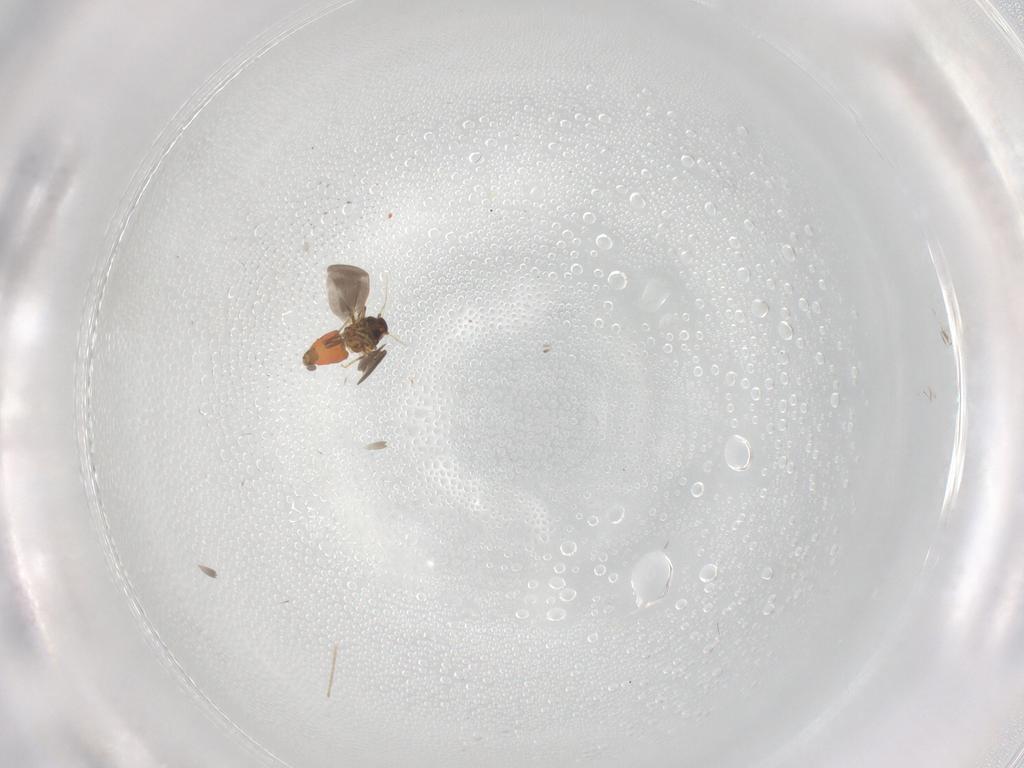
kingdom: Animalia
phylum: Arthropoda
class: Insecta
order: Hemiptera
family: Aleyrodidae
